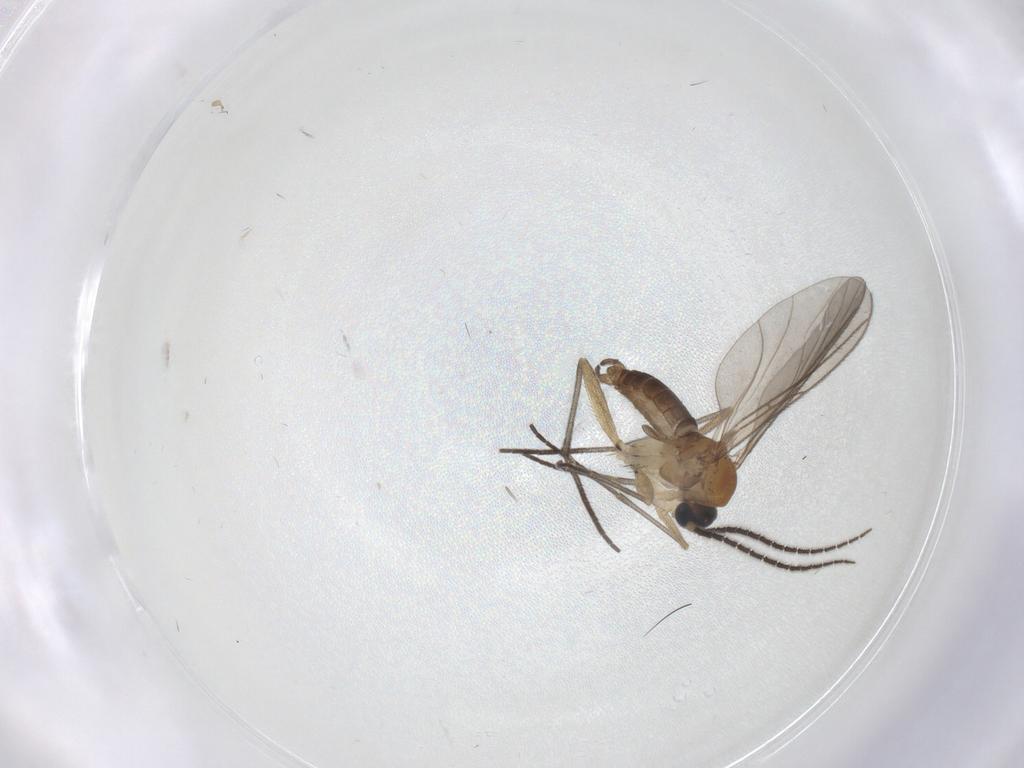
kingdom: Animalia
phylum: Arthropoda
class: Insecta
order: Diptera
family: Sciaridae
